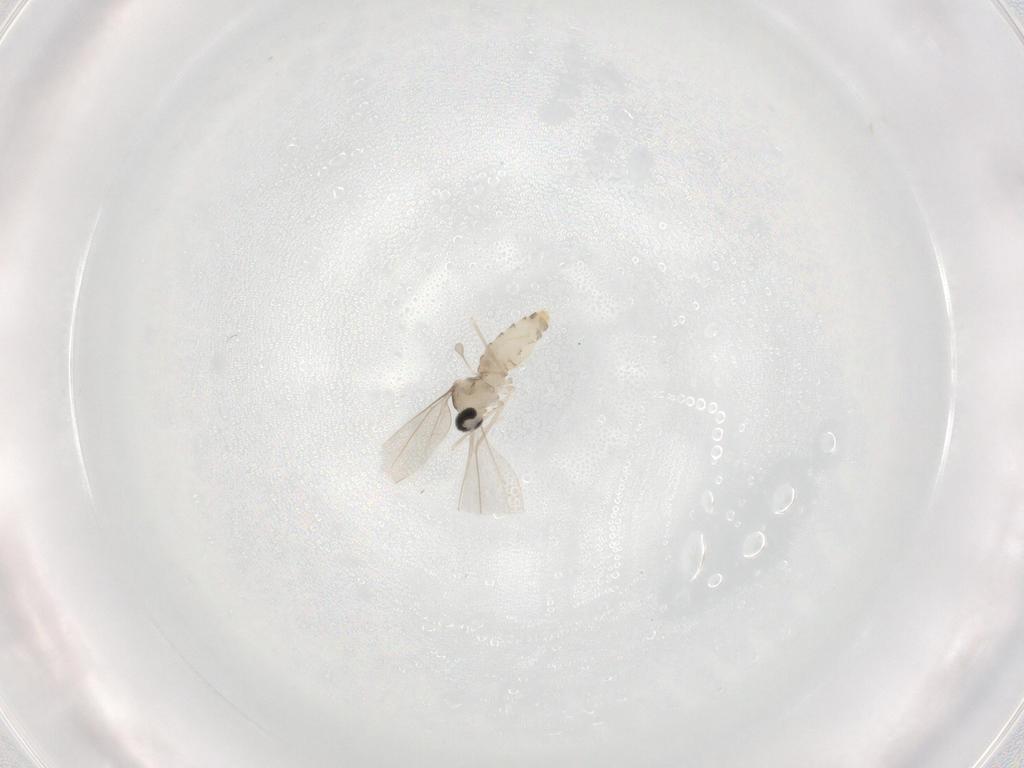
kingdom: Animalia
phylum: Arthropoda
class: Insecta
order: Diptera
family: Cecidomyiidae
